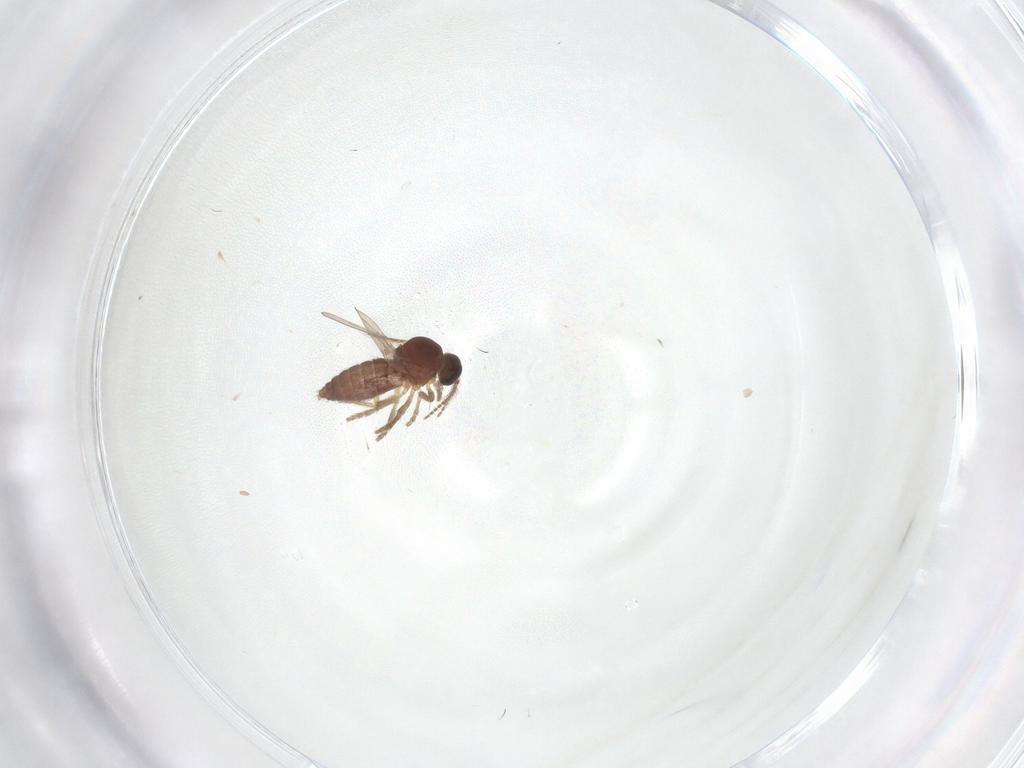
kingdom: Animalia
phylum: Arthropoda
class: Insecta
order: Diptera
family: Ceratopogonidae
